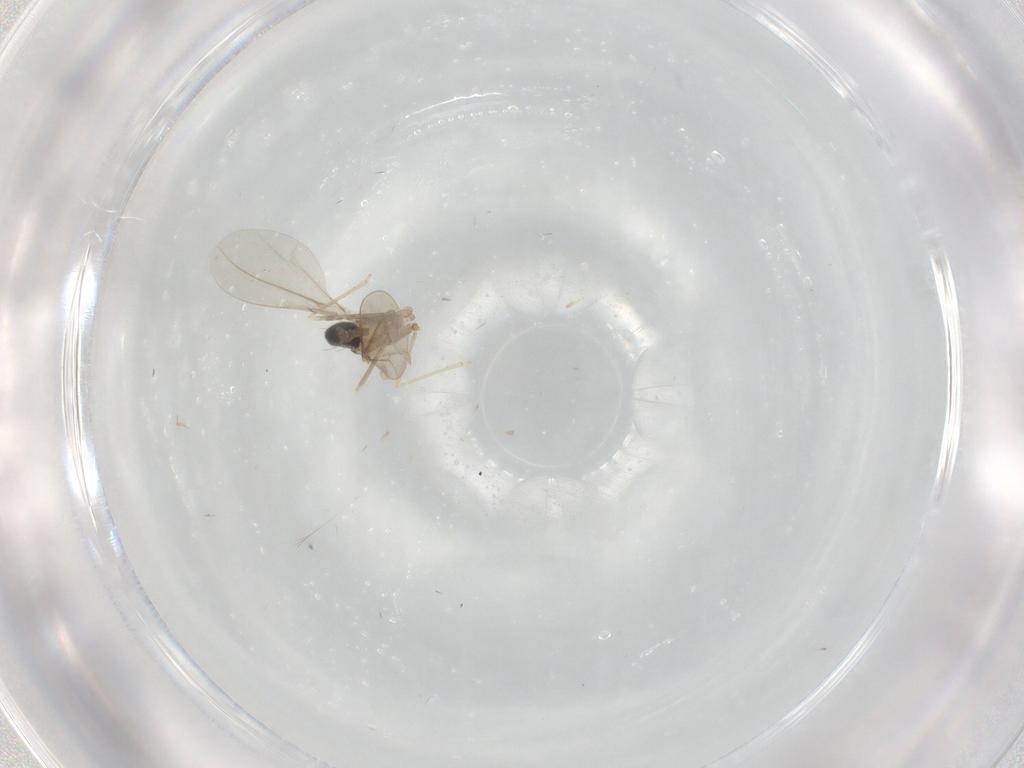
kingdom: Animalia
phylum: Arthropoda
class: Insecta
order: Diptera
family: Cecidomyiidae
